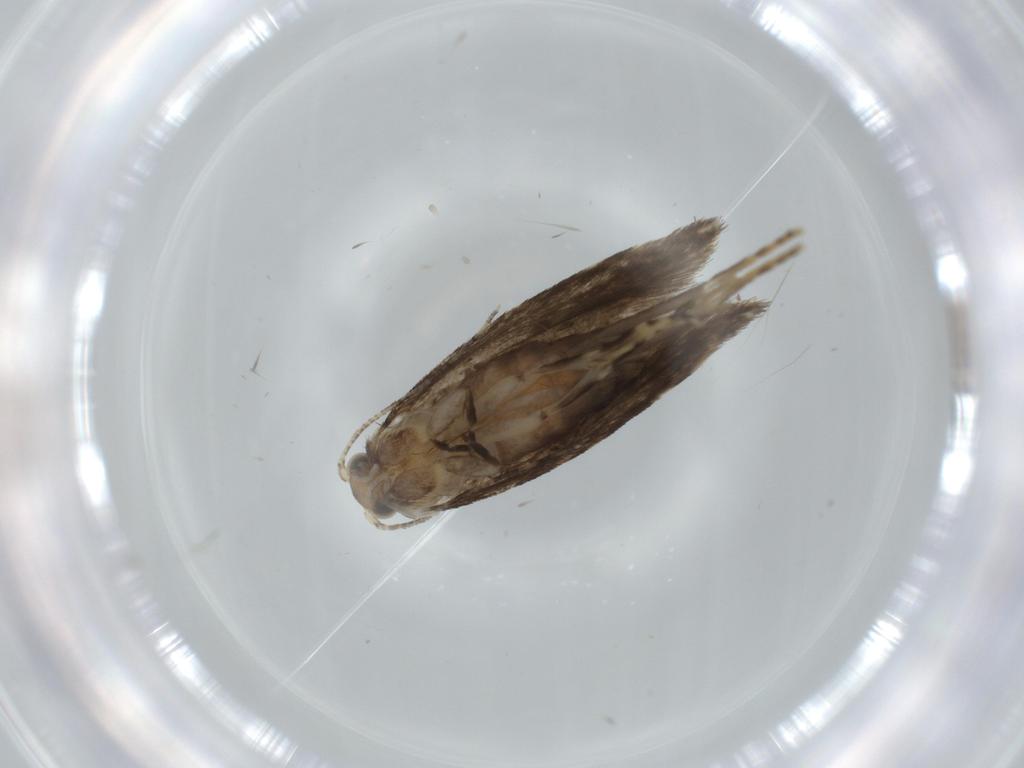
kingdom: Animalia
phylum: Arthropoda
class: Insecta
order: Lepidoptera
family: Tineidae
